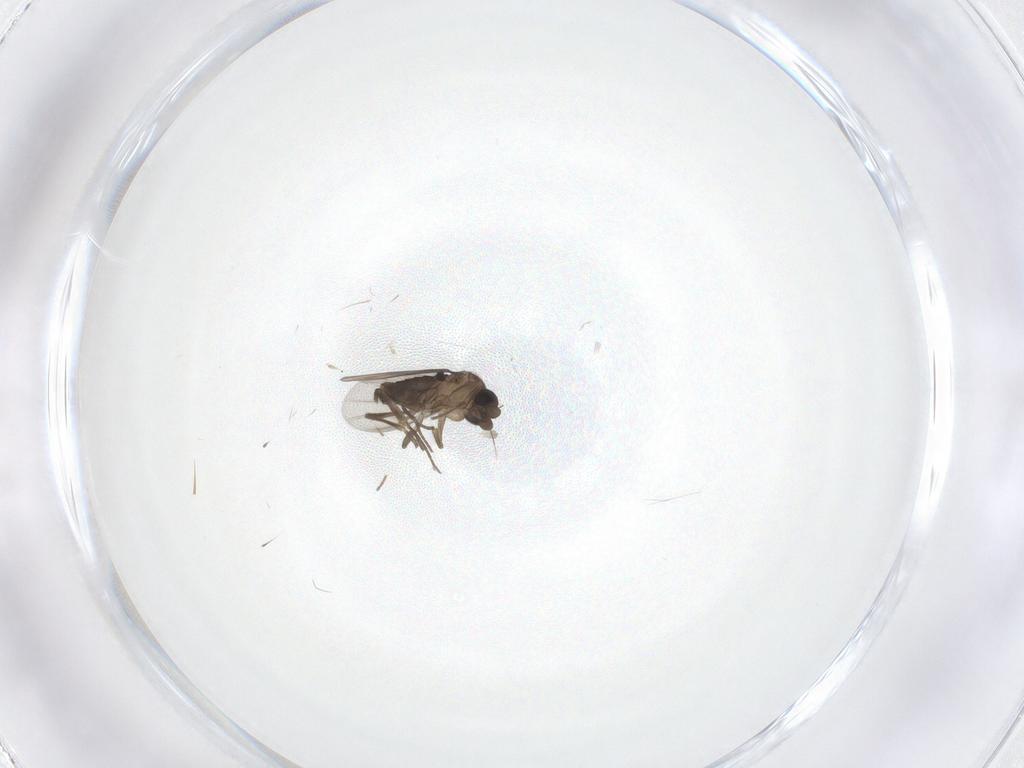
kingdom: Animalia
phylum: Arthropoda
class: Insecta
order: Diptera
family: Phoridae
